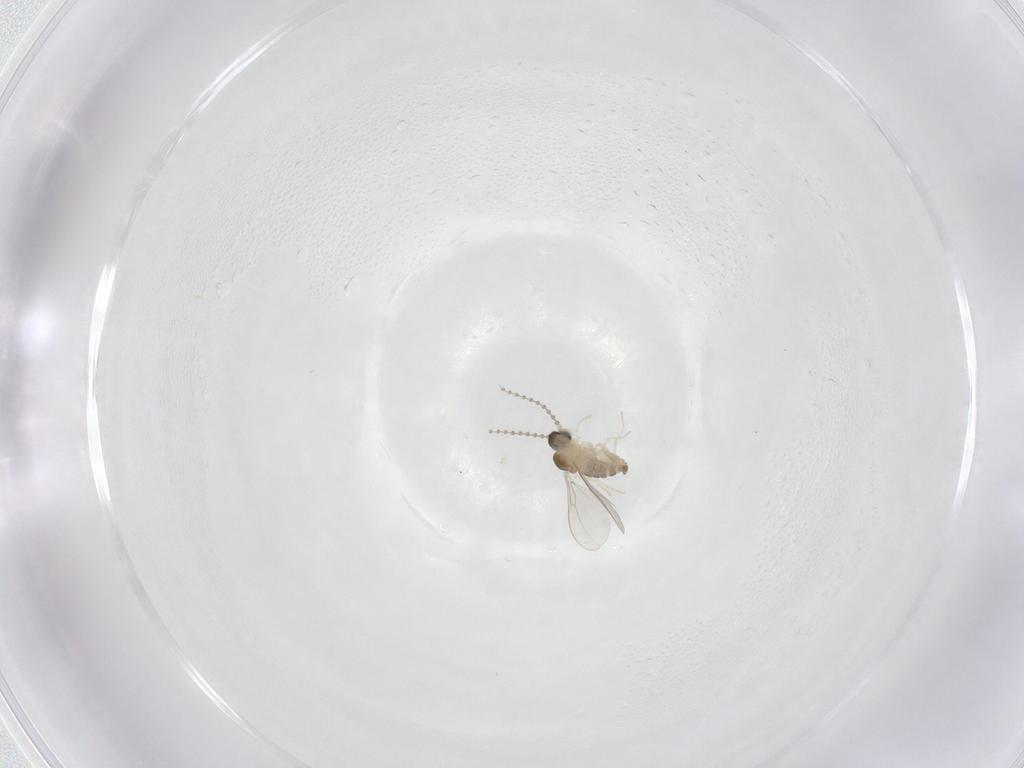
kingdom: Animalia
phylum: Arthropoda
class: Insecta
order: Diptera
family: Cecidomyiidae
